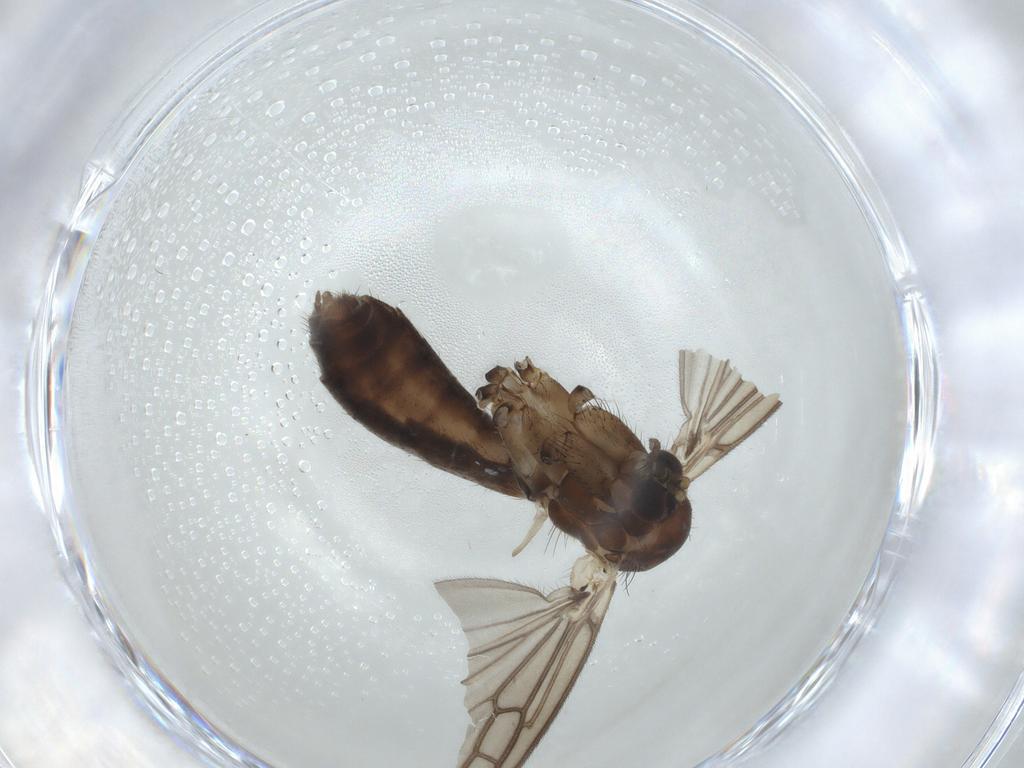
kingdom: Animalia
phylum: Arthropoda
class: Insecta
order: Diptera
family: Mycetophilidae
